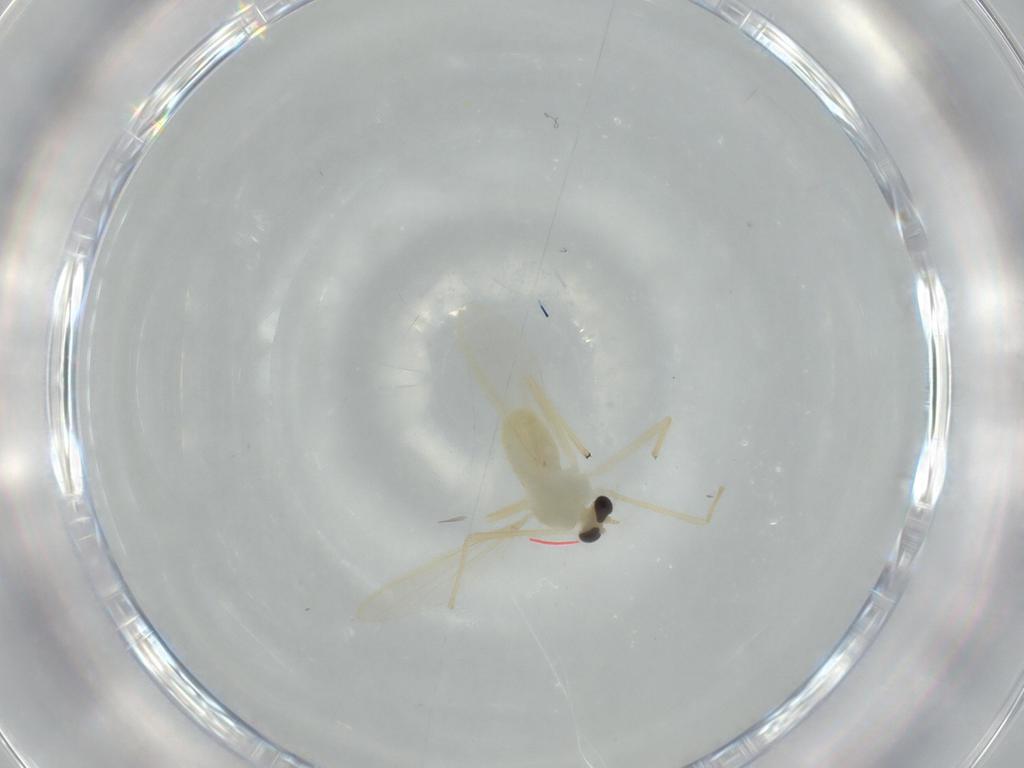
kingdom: Animalia
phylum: Arthropoda
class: Insecta
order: Diptera
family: Chironomidae
